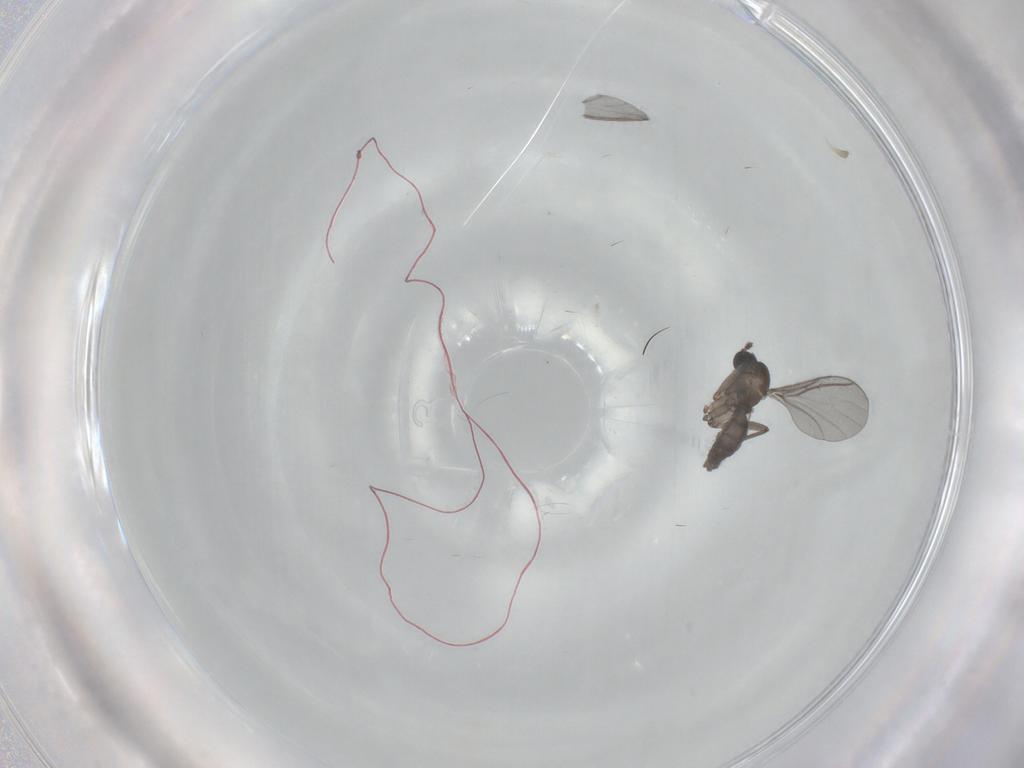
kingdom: Animalia
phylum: Arthropoda
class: Insecta
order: Diptera
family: Sciaridae
